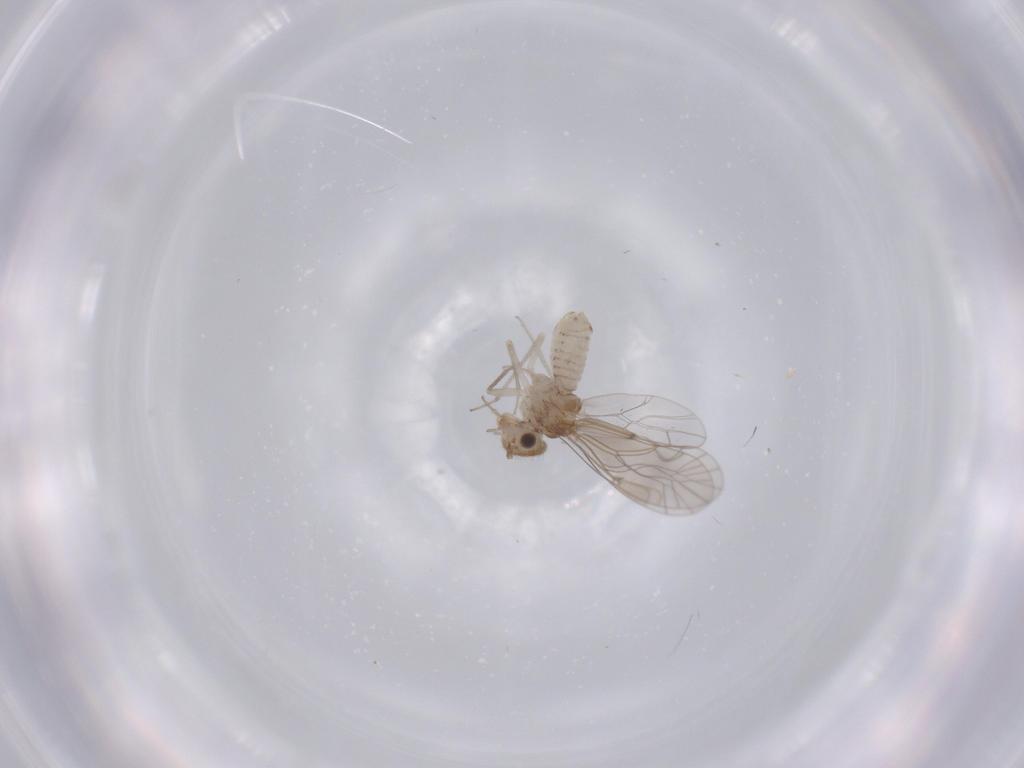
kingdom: Animalia
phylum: Arthropoda
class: Insecta
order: Psocodea
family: Lachesillidae
